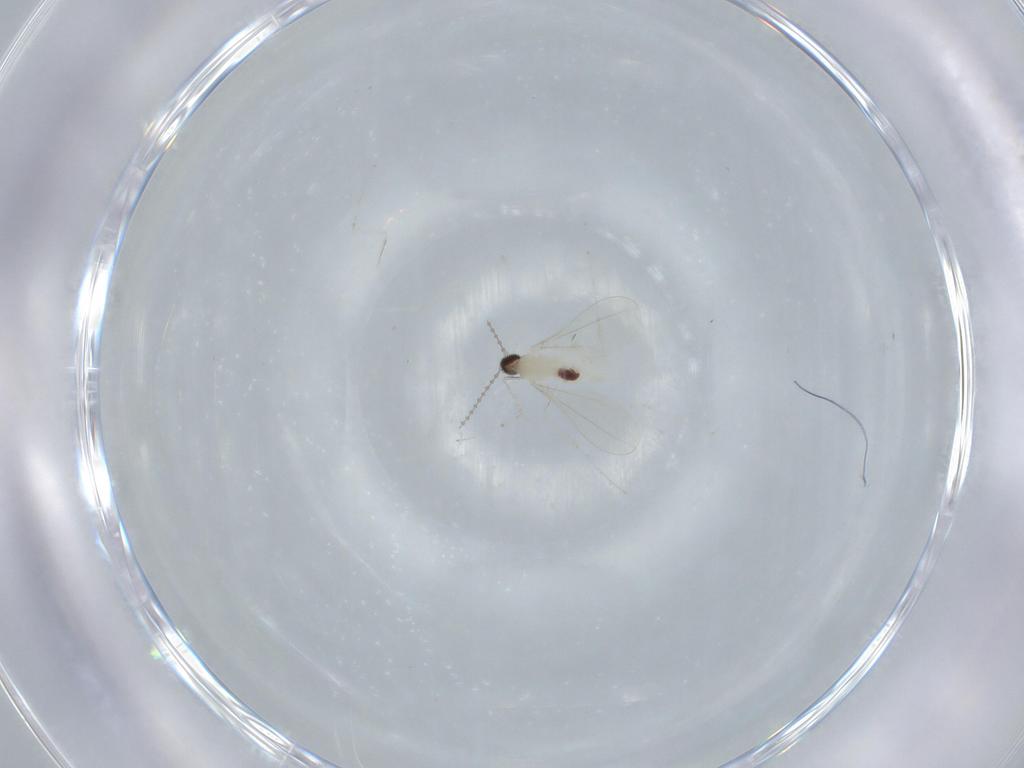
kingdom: Animalia
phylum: Arthropoda
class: Insecta
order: Diptera
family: Cecidomyiidae
